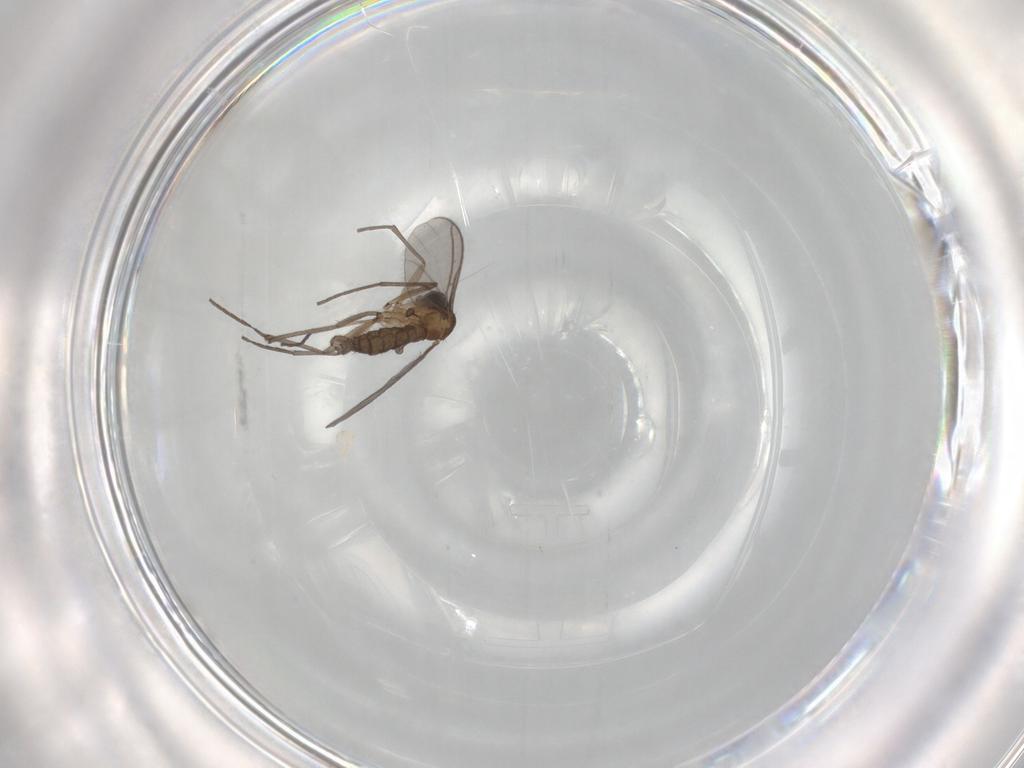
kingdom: Animalia
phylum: Arthropoda
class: Insecta
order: Diptera
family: Sciaridae
